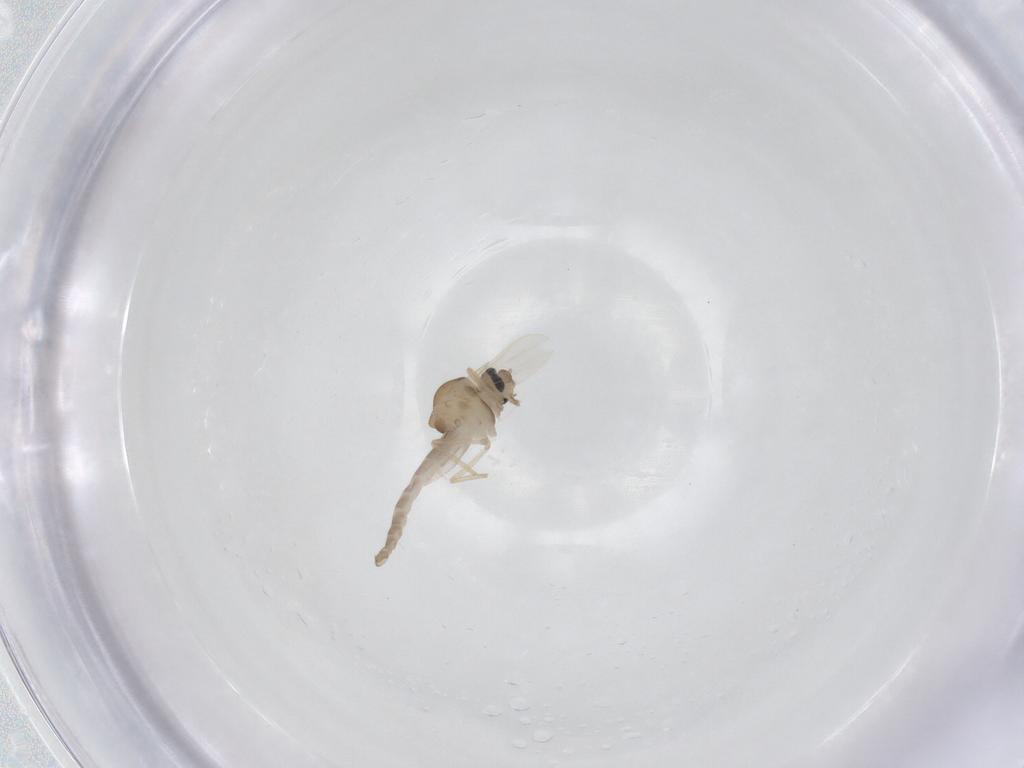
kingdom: Animalia
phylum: Arthropoda
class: Insecta
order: Diptera
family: Ceratopogonidae
